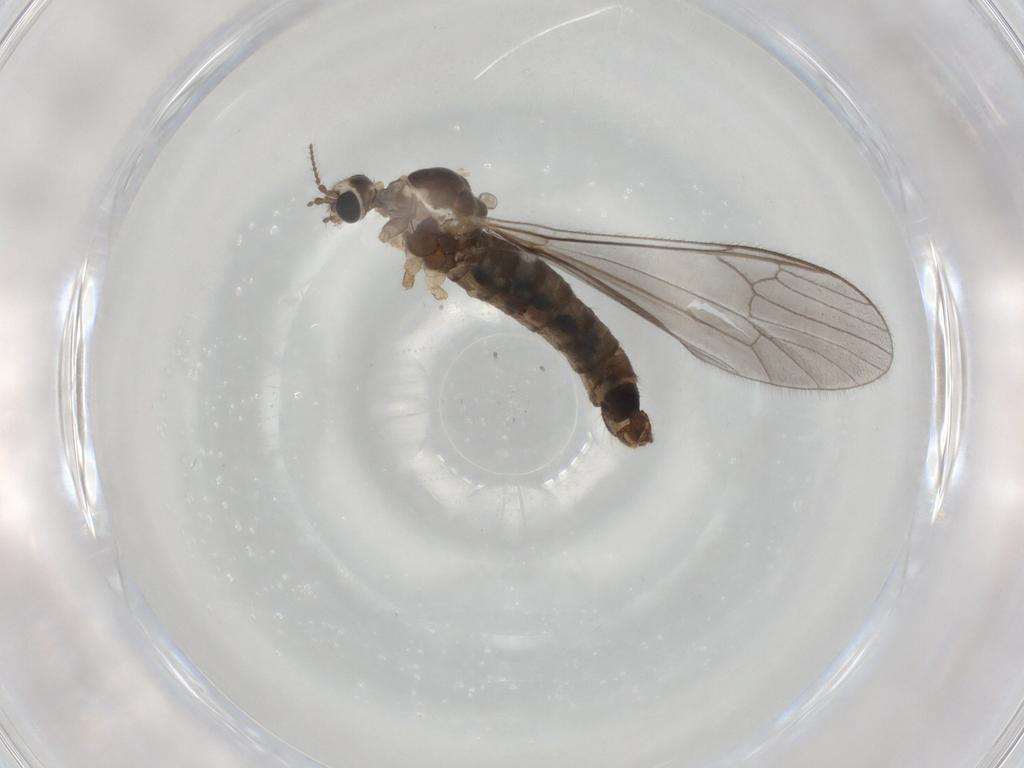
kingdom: Animalia
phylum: Arthropoda
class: Insecta
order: Diptera
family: Limoniidae
